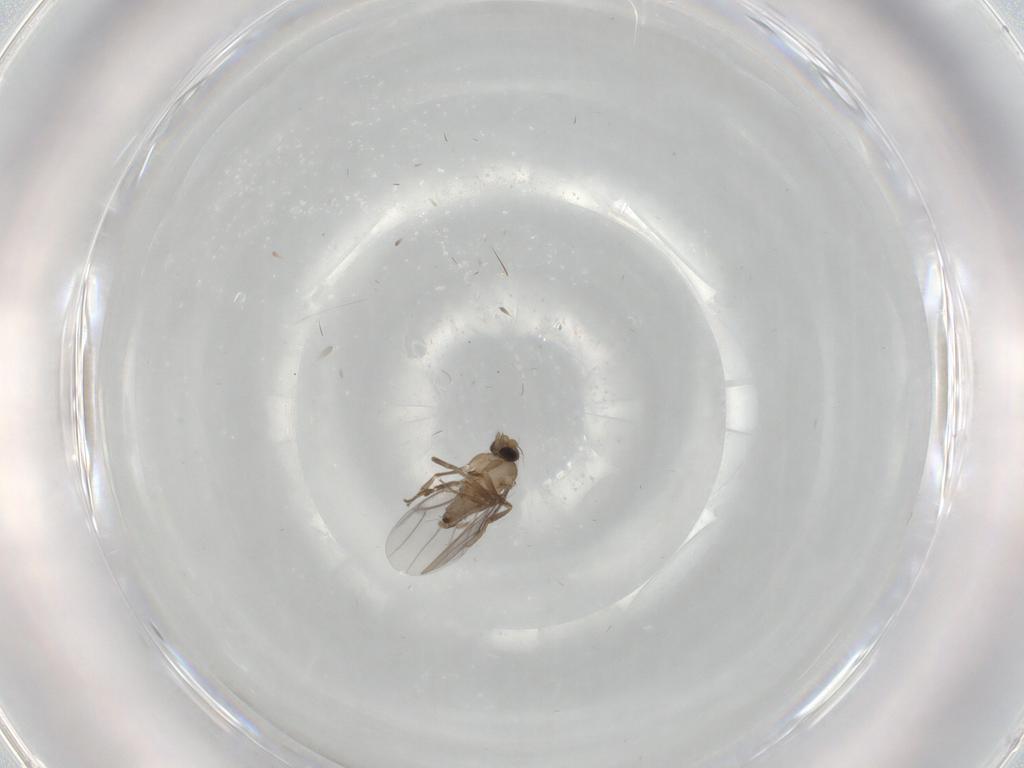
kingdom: Animalia
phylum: Arthropoda
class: Insecta
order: Diptera
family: Dolichopodidae
